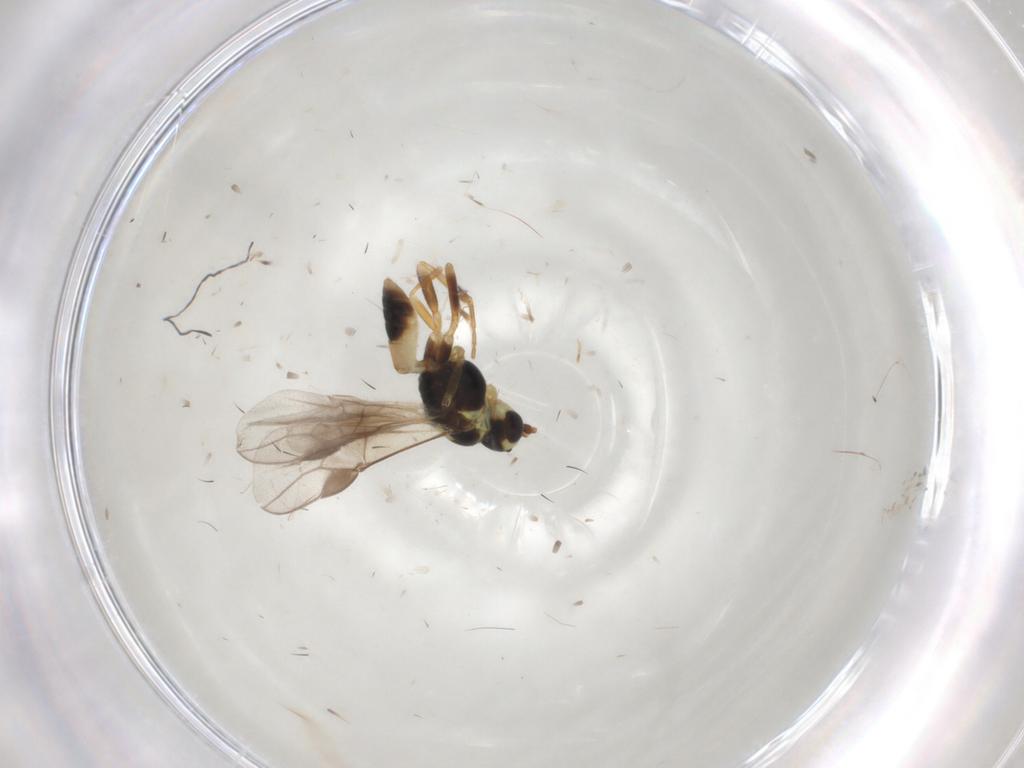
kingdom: Animalia
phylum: Arthropoda
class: Insecta
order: Hymenoptera
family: Braconidae
